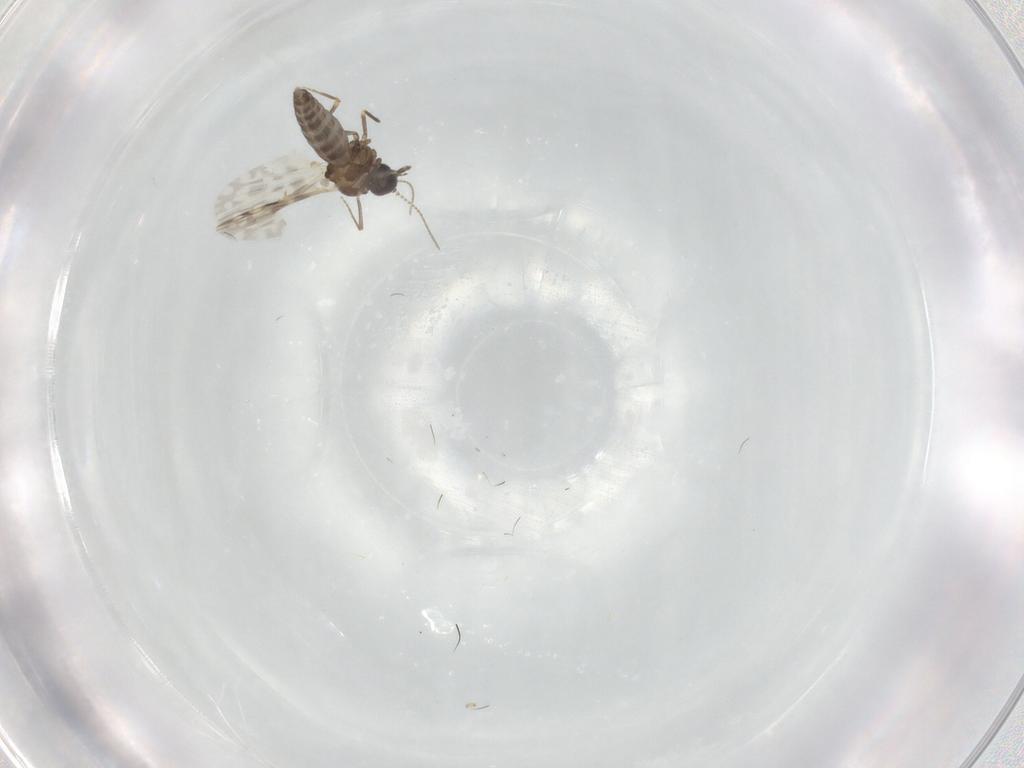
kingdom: Animalia
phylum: Arthropoda
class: Insecta
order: Diptera
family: Ceratopogonidae
